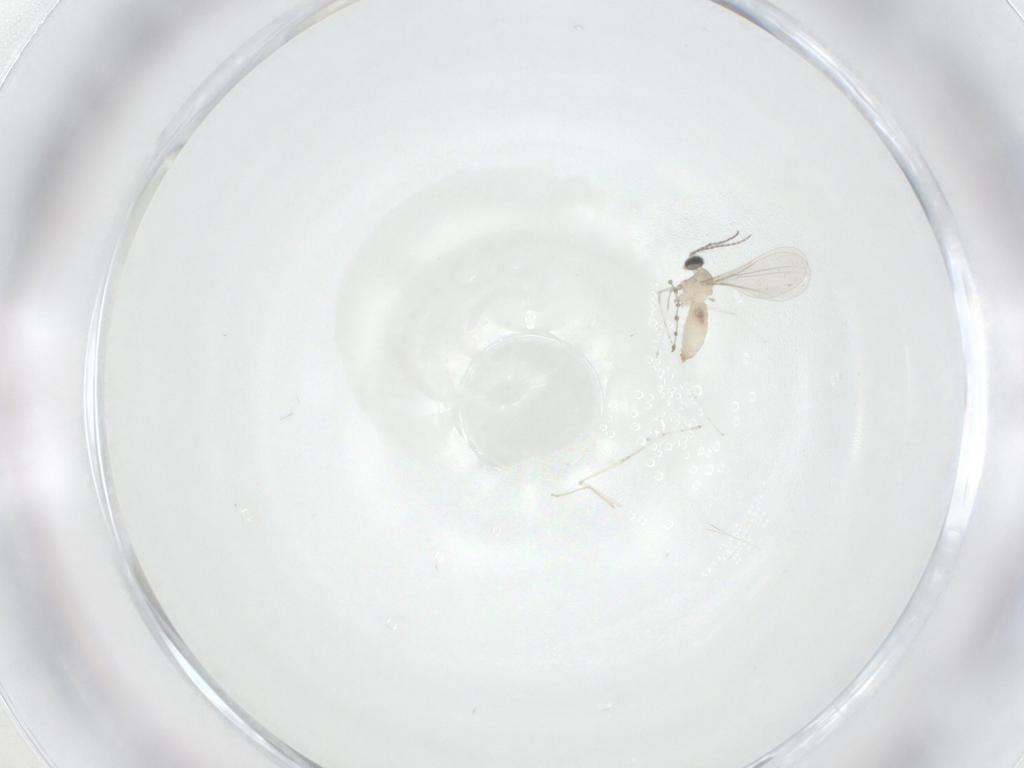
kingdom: Animalia
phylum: Arthropoda
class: Insecta
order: Diptera
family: Cecidomyiidae
